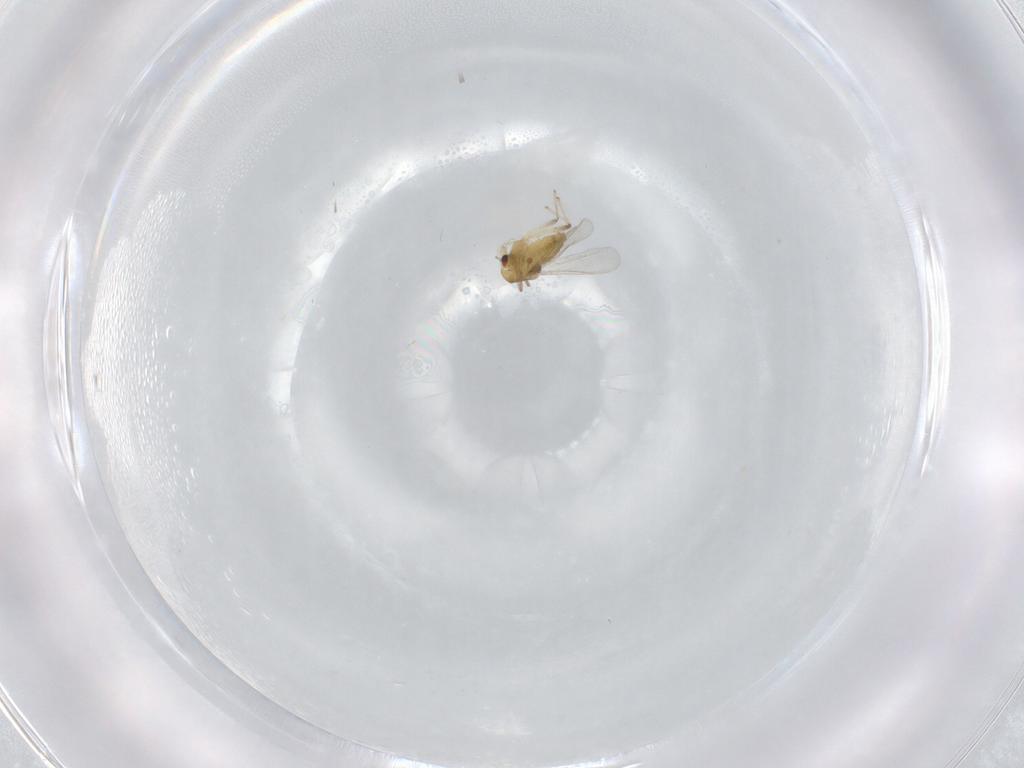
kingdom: Animalia
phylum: Arthropoda
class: Insecta
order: Diptera
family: Chironomidae
